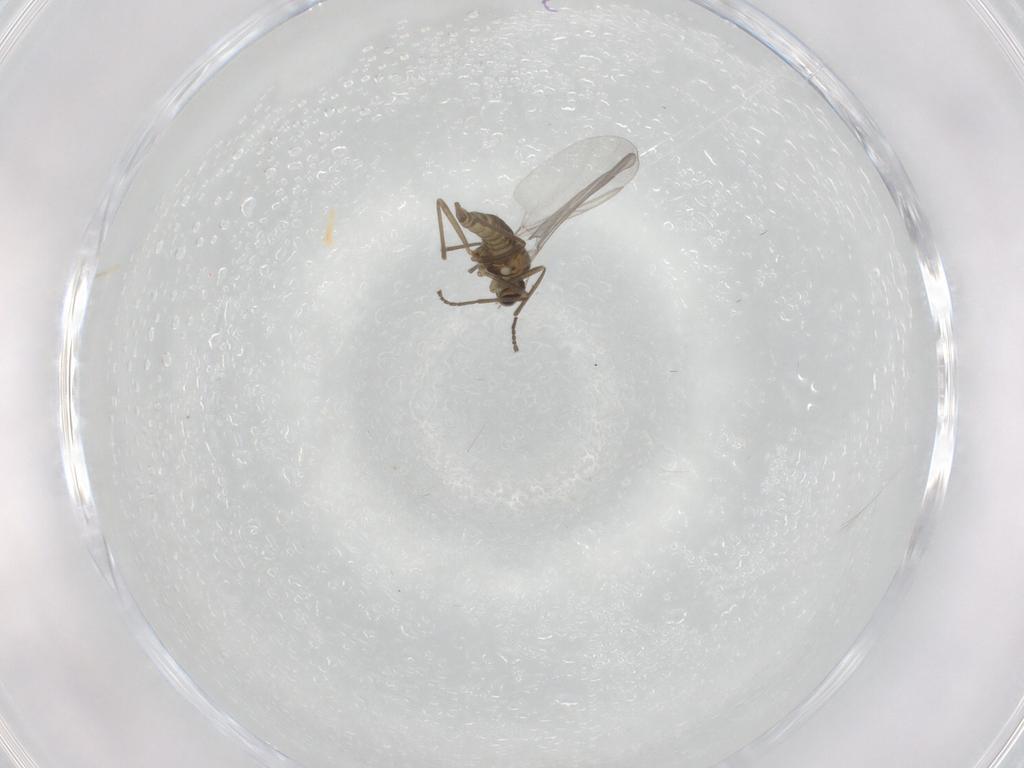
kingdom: Animalia
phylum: Arthropoda
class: Insecta
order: Diptera
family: Cecidomyiidae
